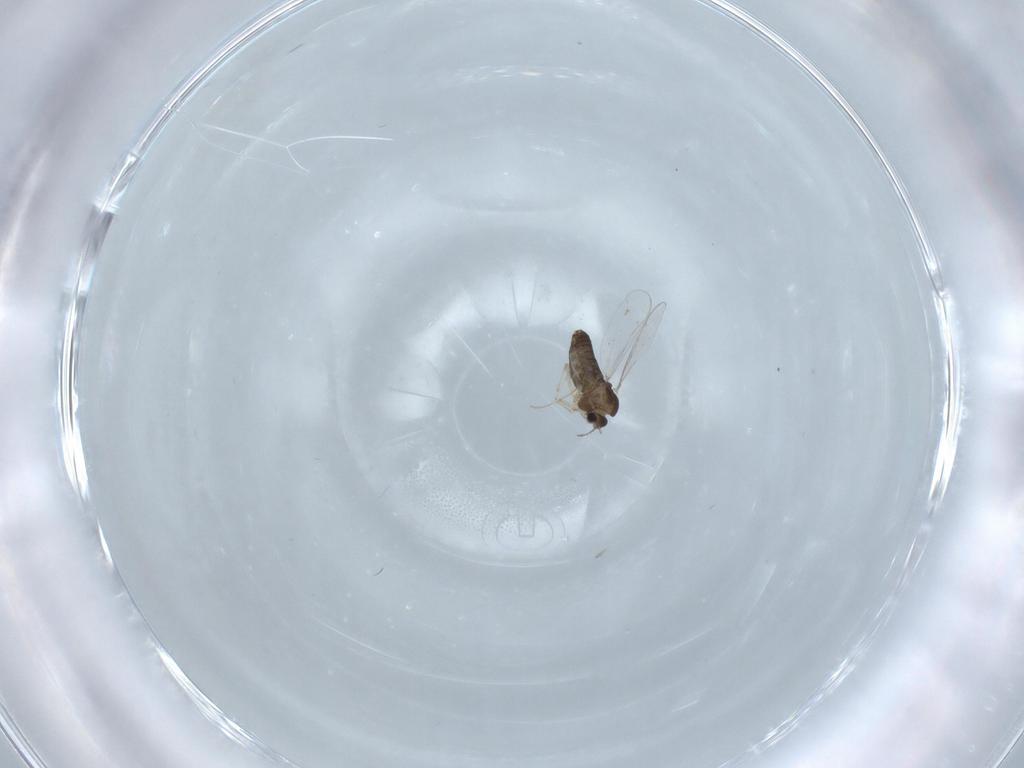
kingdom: Animalia
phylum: Arthropoda
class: Insecta
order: Diptera
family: Chironomidae
